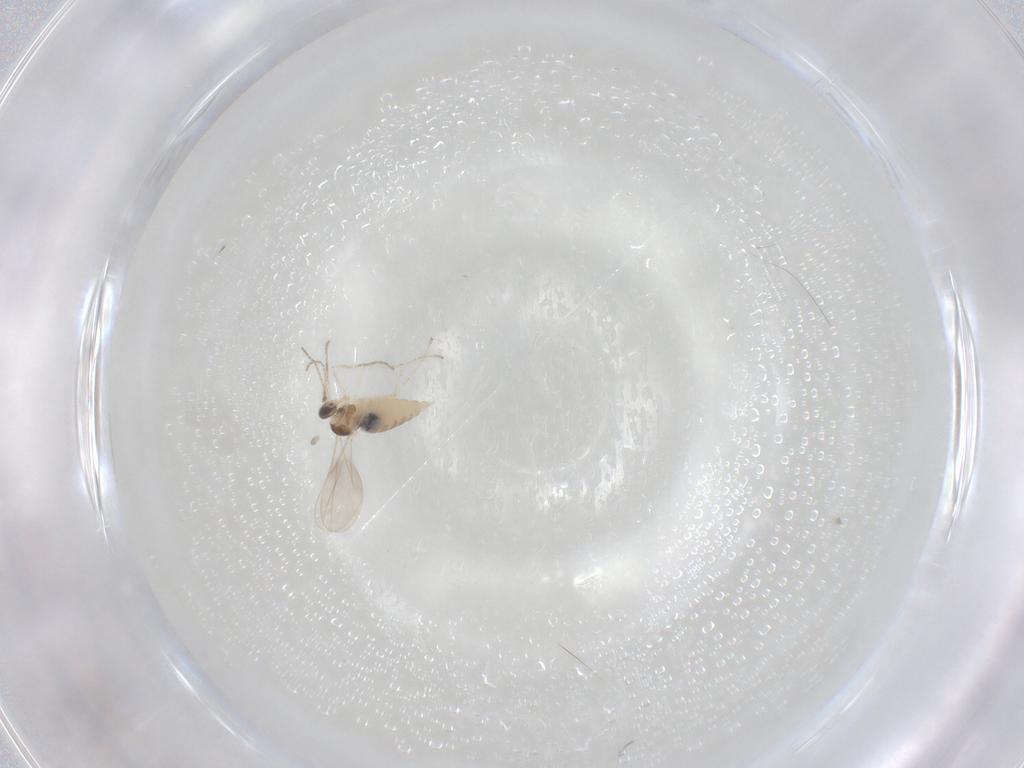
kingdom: Animalia
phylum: Arthropoda
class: Insecta
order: Diptera
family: Cecidomyiidae
